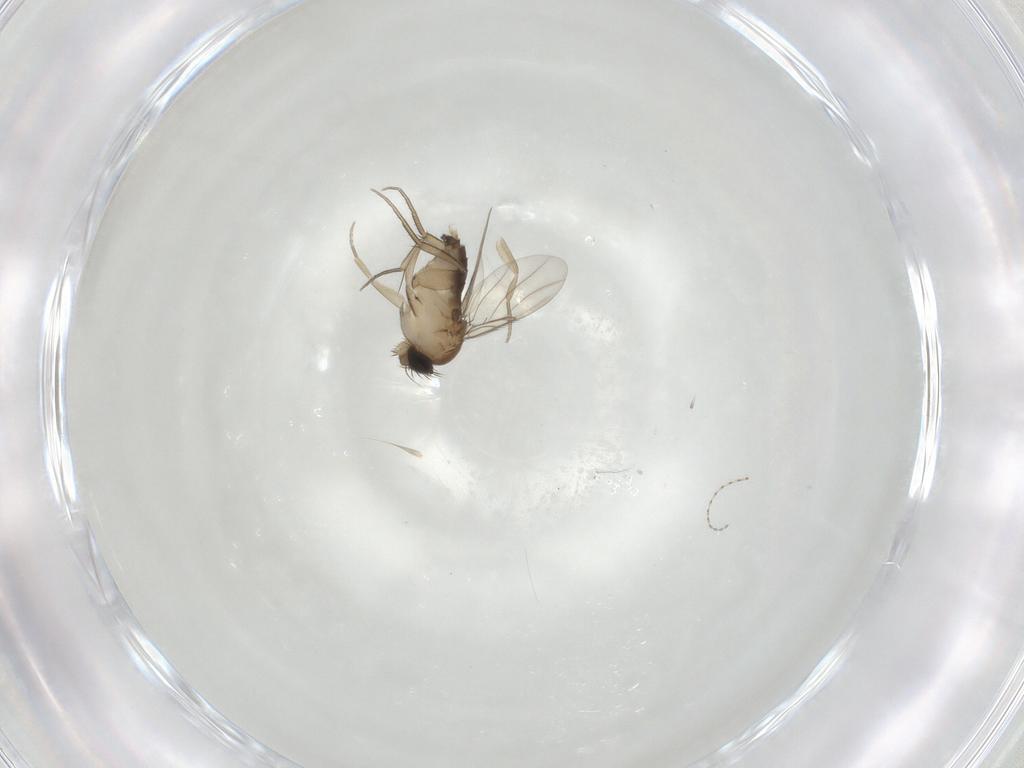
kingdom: Animalia
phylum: Arthropoda
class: Insecta
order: Diptera
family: Phoridae
